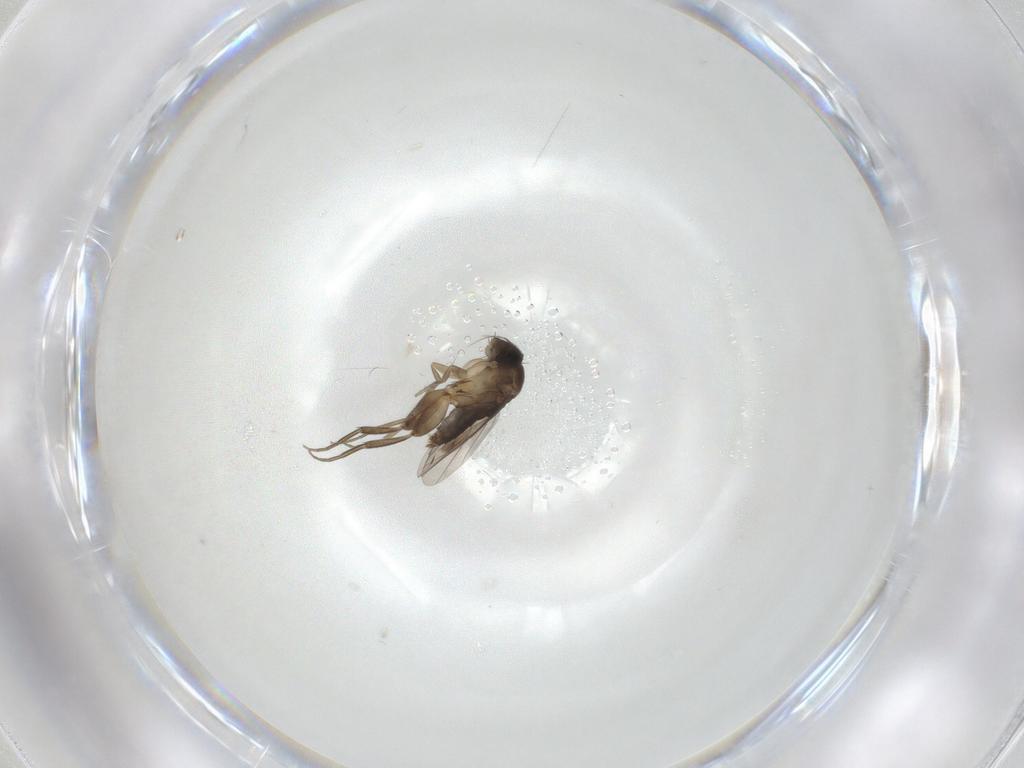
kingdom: Animalia
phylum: Arthropoda
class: Insecta
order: Diptera
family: Phoridae
